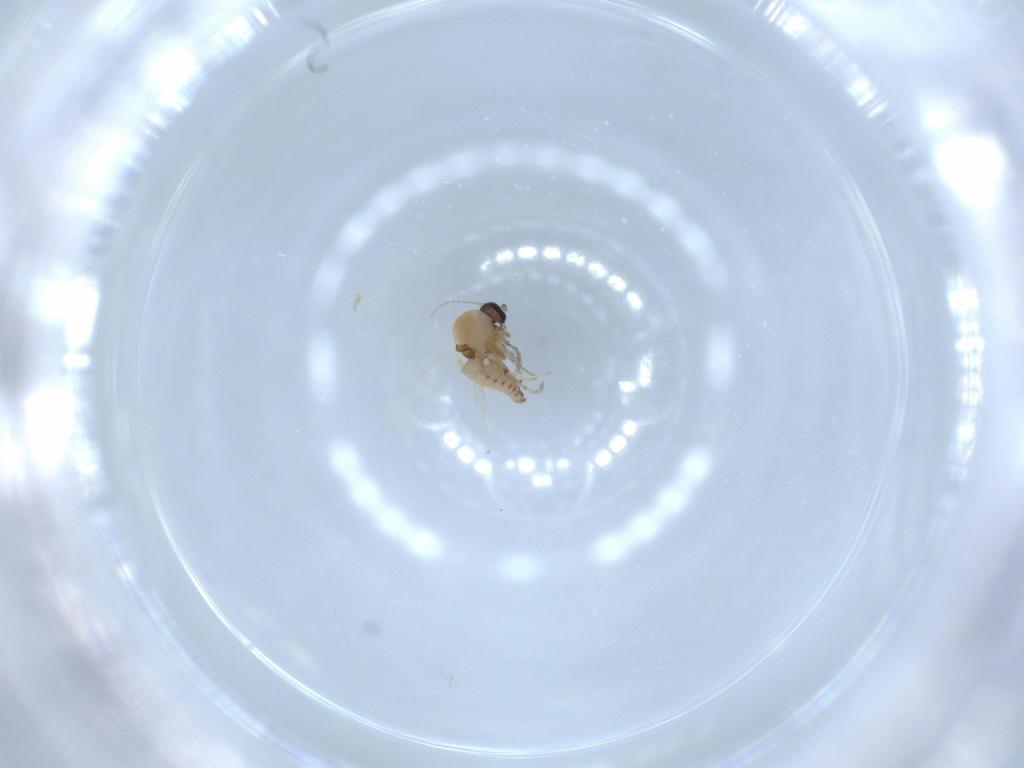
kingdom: Animalia
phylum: Arthropoda
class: Insecta
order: Diptera
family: Ceratopogonidae
